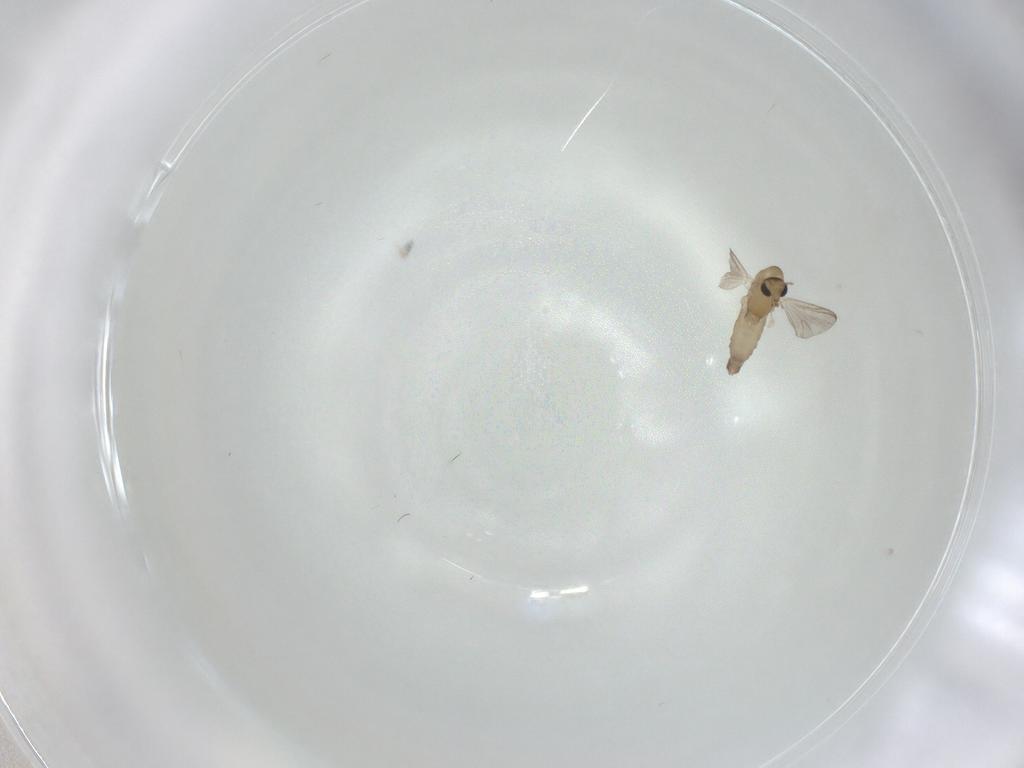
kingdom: Animalia
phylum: Arthropoda
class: Insecta
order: Diptera
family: Chironomidae
